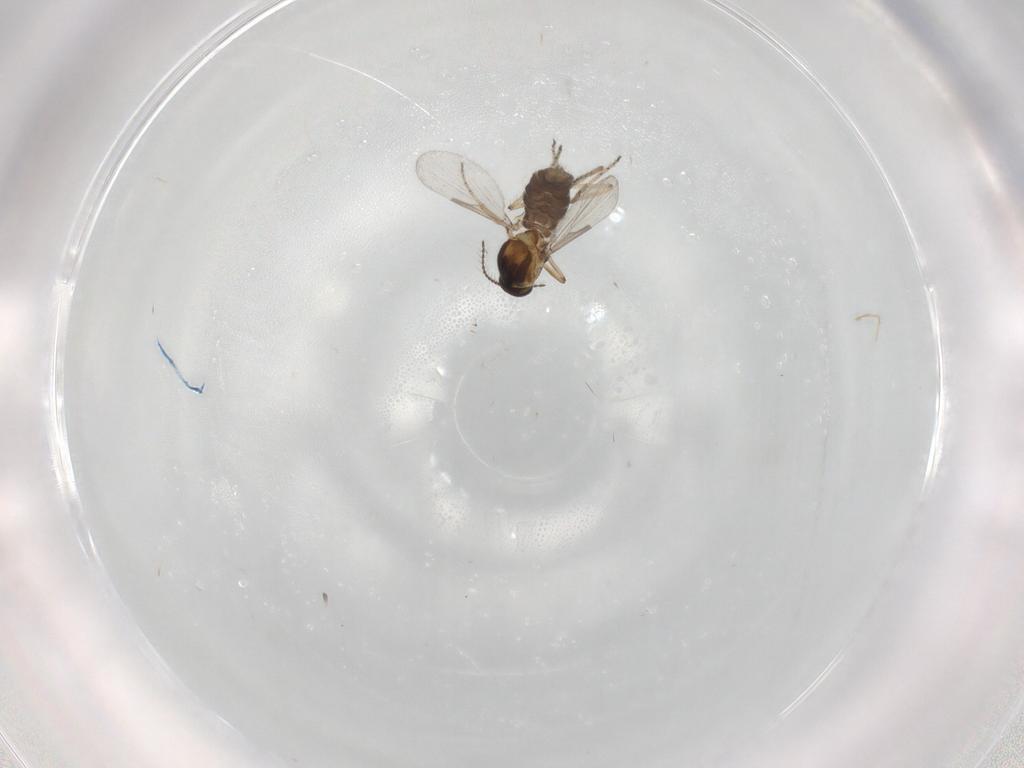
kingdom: Animalia
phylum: Arthropoda
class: Insecta
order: Diptera
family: Ceratopogonidae
